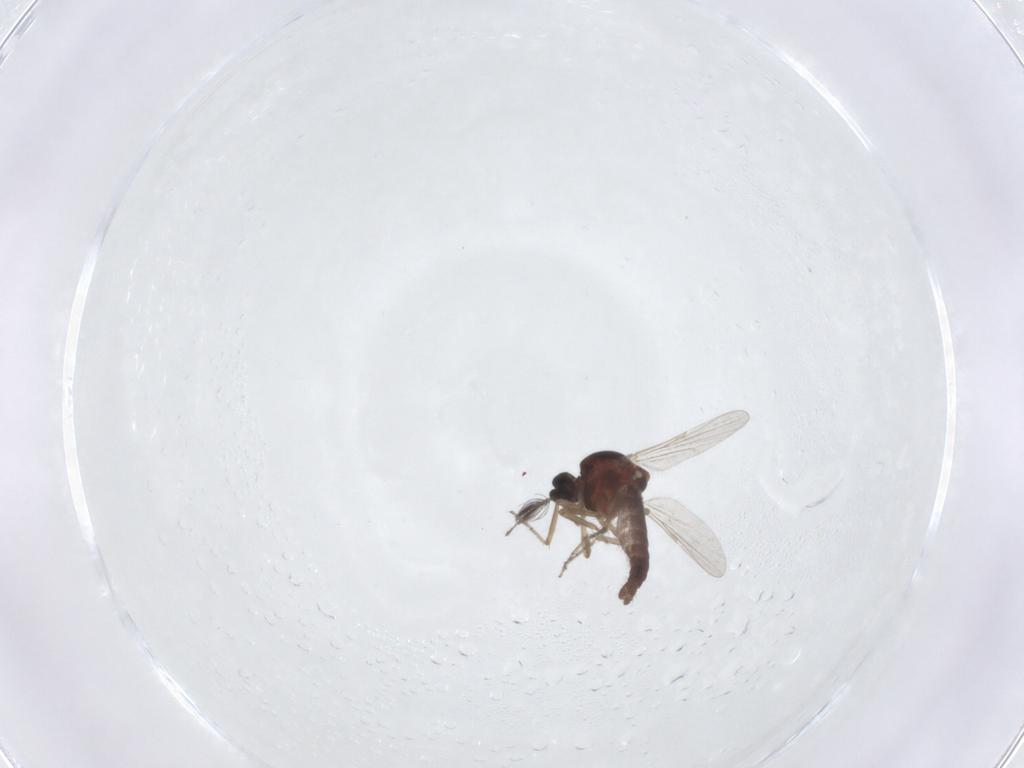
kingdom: Animalia
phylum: Arthropoda
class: Insecta
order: Diptera
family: Ceratopogonidae
